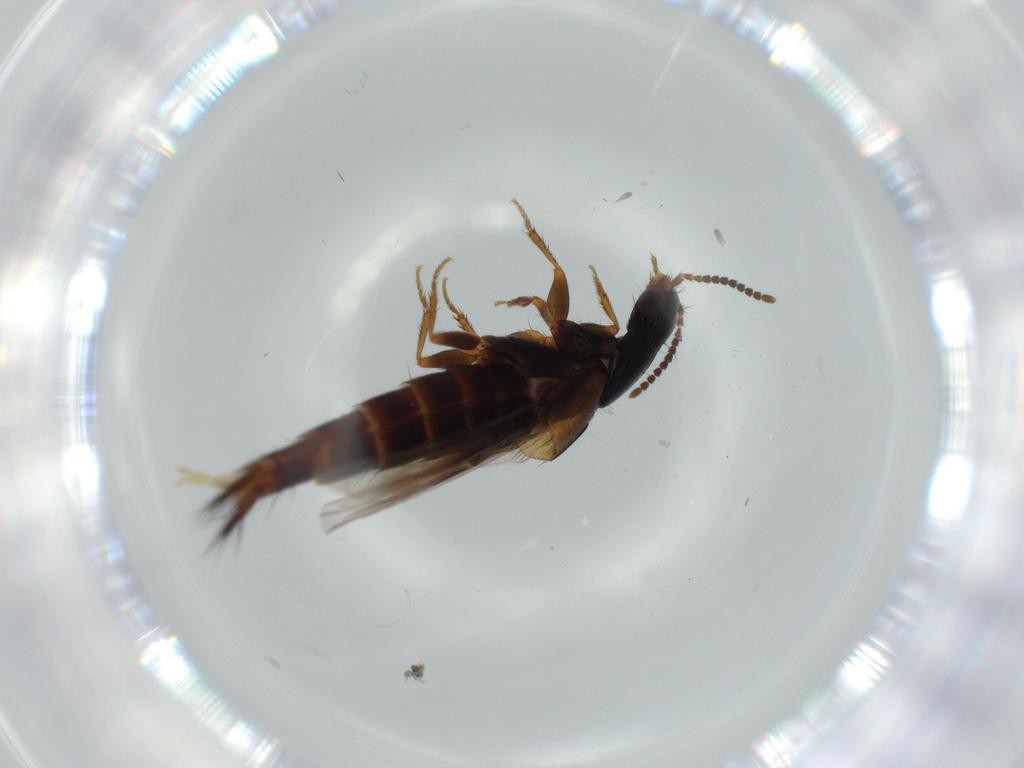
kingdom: Animalia
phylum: Arthropoda
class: Insecta
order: Coleoptera
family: Staphylinidae
